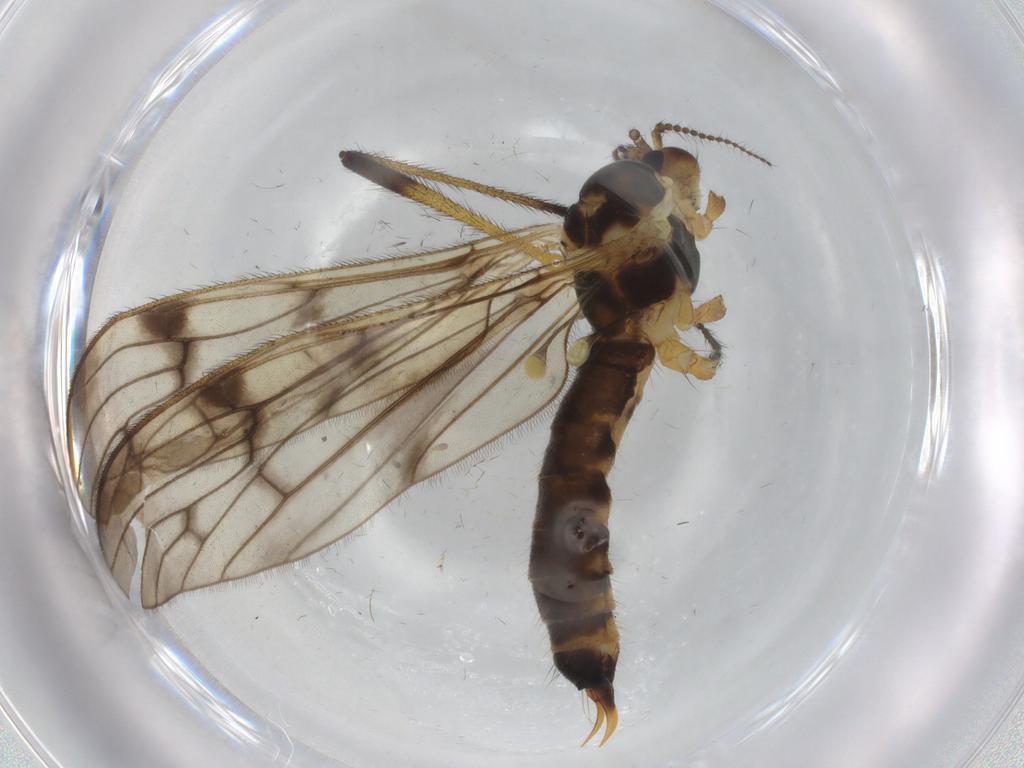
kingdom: Animalia
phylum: Arthropoda
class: Insecta
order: Diptera
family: Limoniidae
